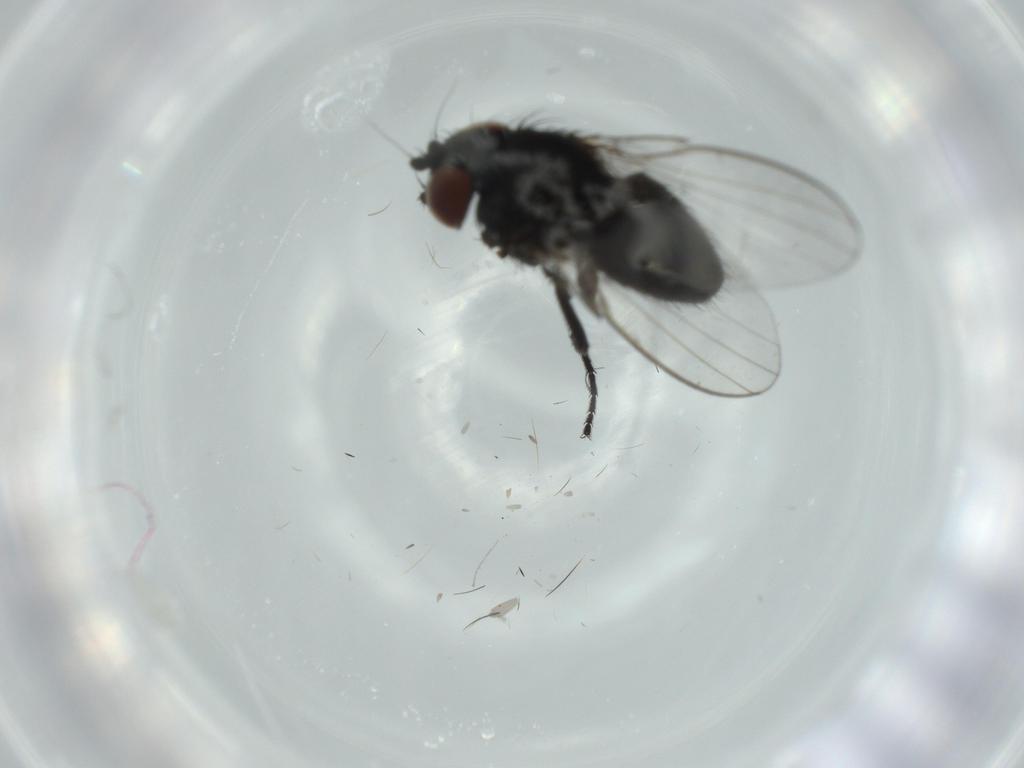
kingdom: Animalia
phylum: Arthropoda
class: Insecta
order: Diptera
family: Milichiidae
